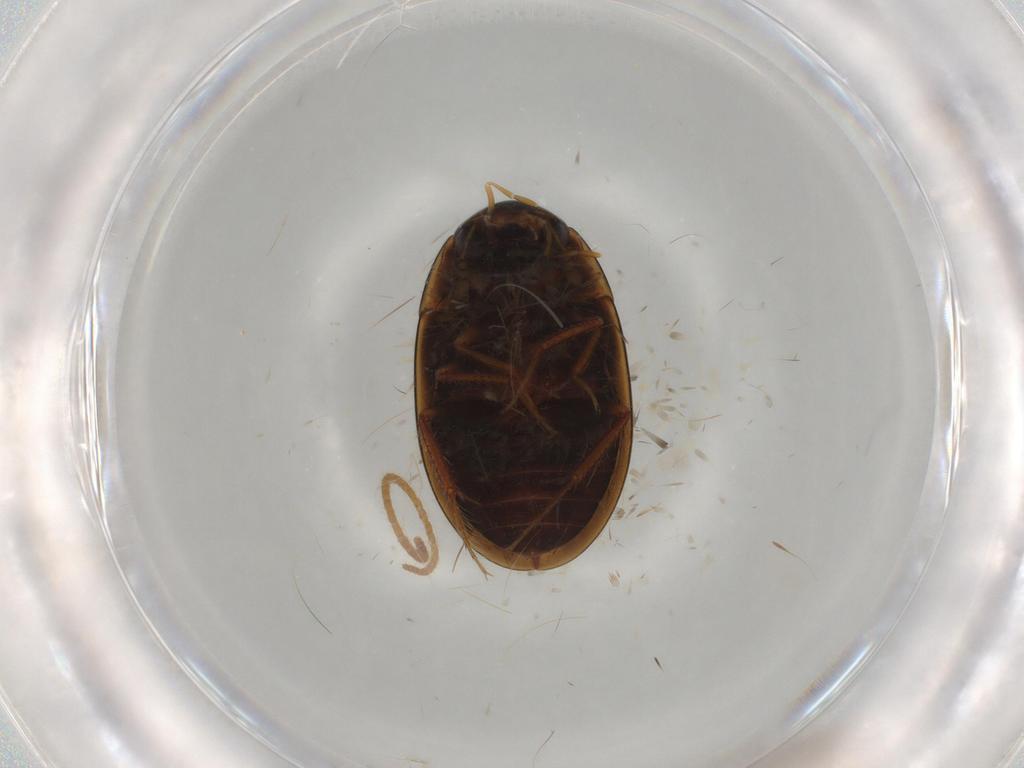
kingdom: Animalia
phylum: Arthropoda
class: Insecta
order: Coleoptera
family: Hydrophilidae
